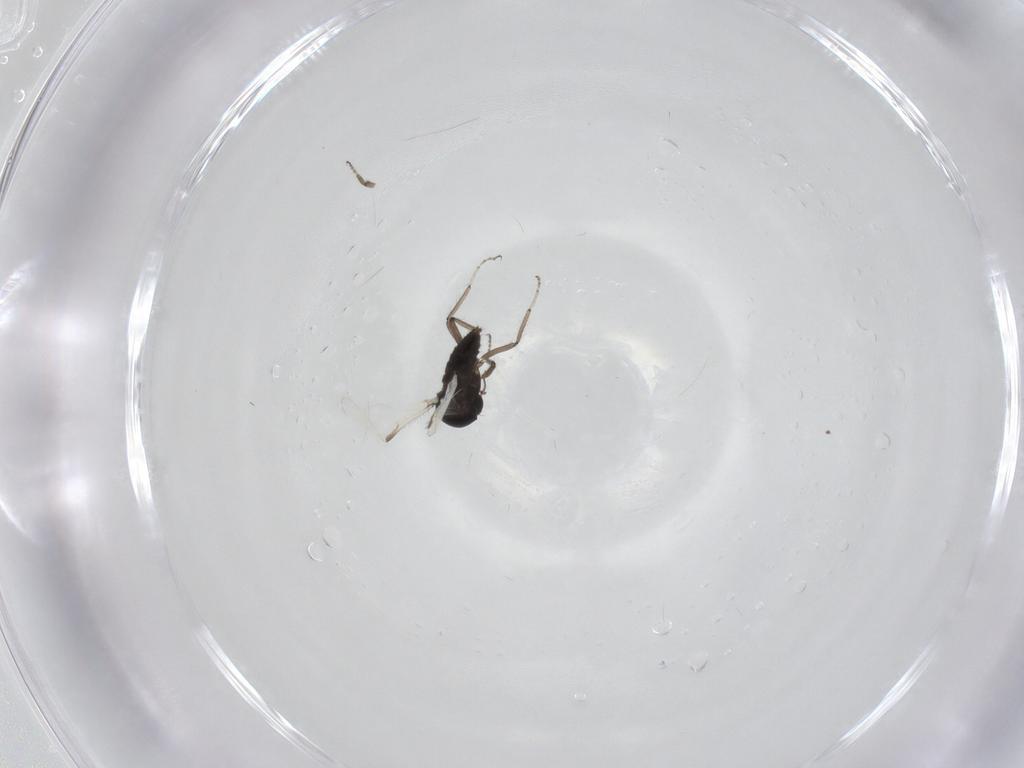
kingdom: Animalia
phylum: Arthropoda
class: Insecta
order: Diptera
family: Ceratopogonidae
